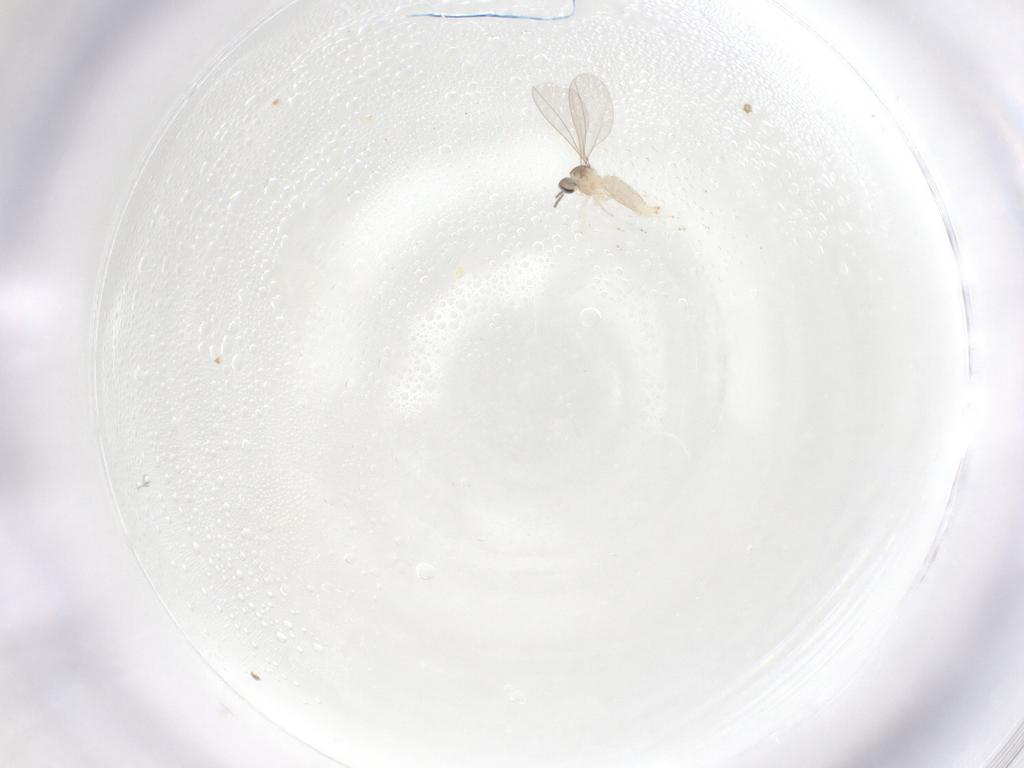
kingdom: Animalia
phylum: Arthropoda
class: Insecta
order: Diptera
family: Cecidomyiidae
